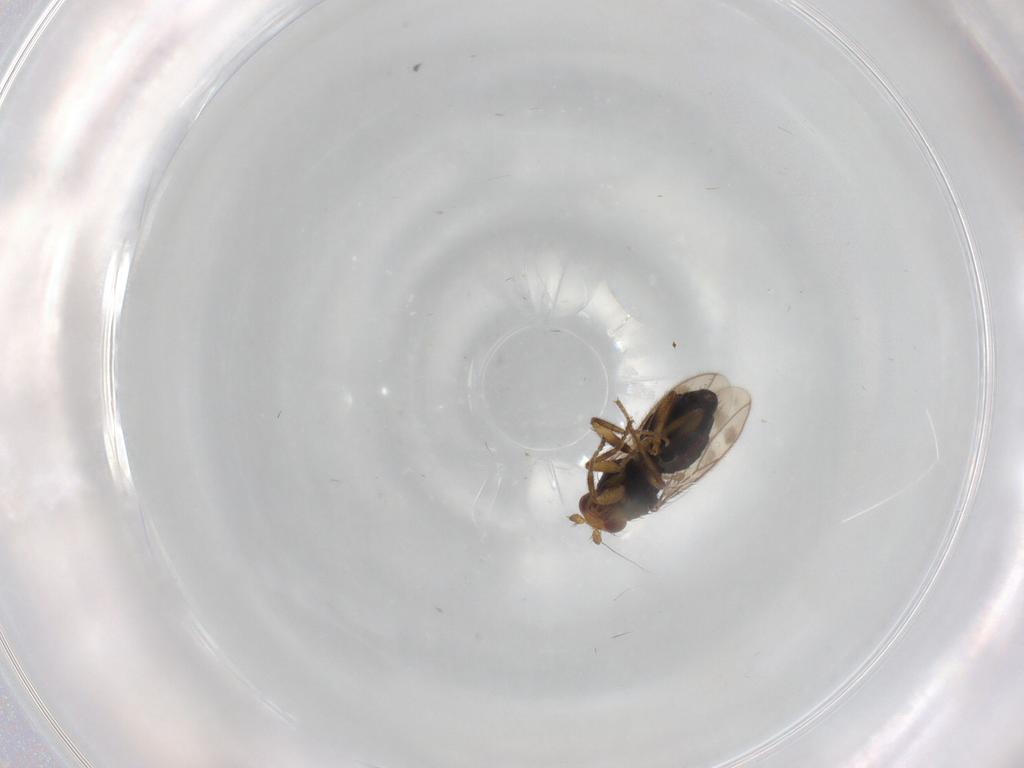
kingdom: Animalia
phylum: Arthropoda
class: Insecta
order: Diptera
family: Sphaeroceridae
